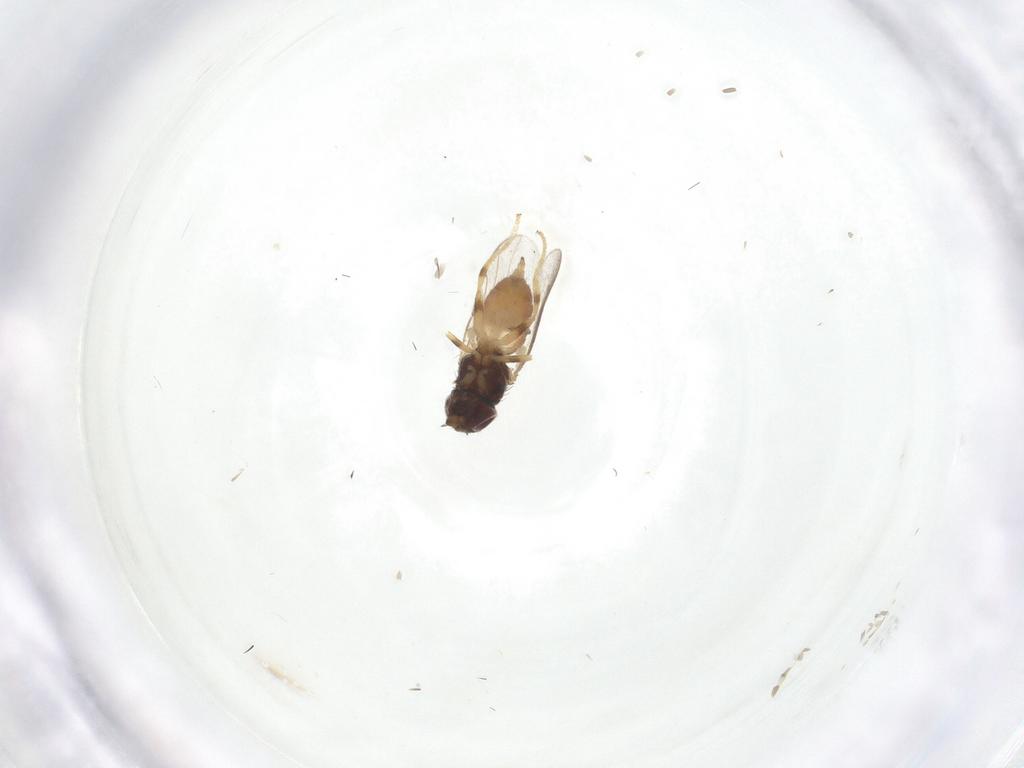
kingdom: Animalia
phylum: Arthropoda
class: Insecta
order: Diptera
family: Chloropidae
